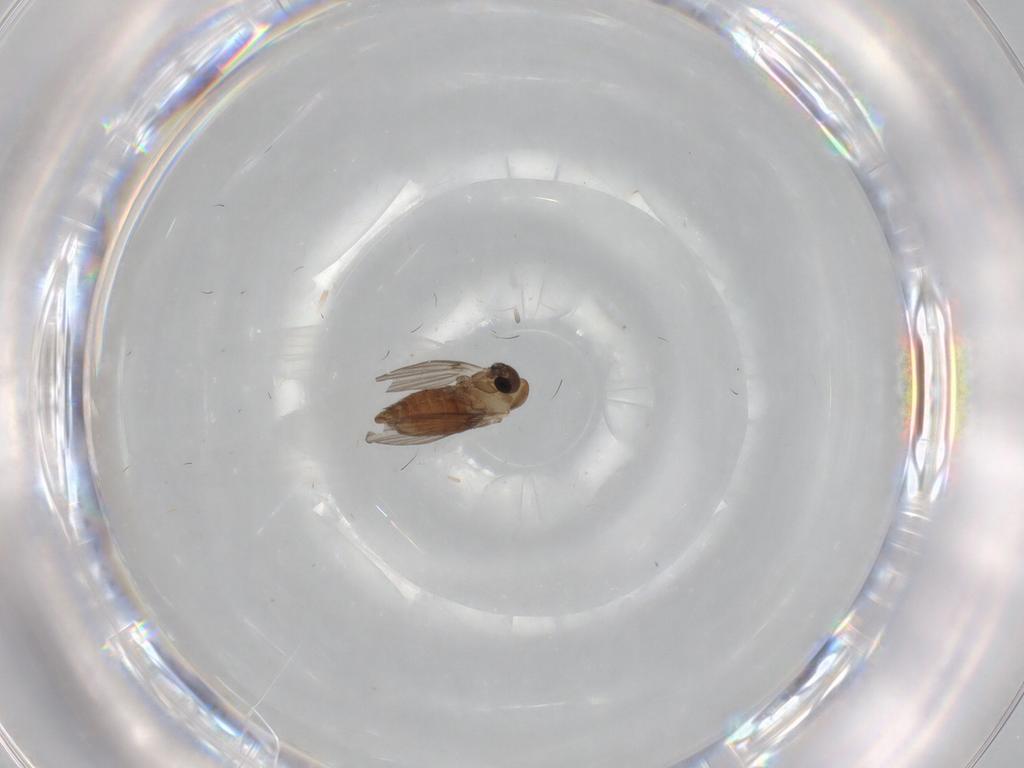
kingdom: Animalia
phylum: Arthropoda
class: Insecta
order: Diptera
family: Psychodidae
